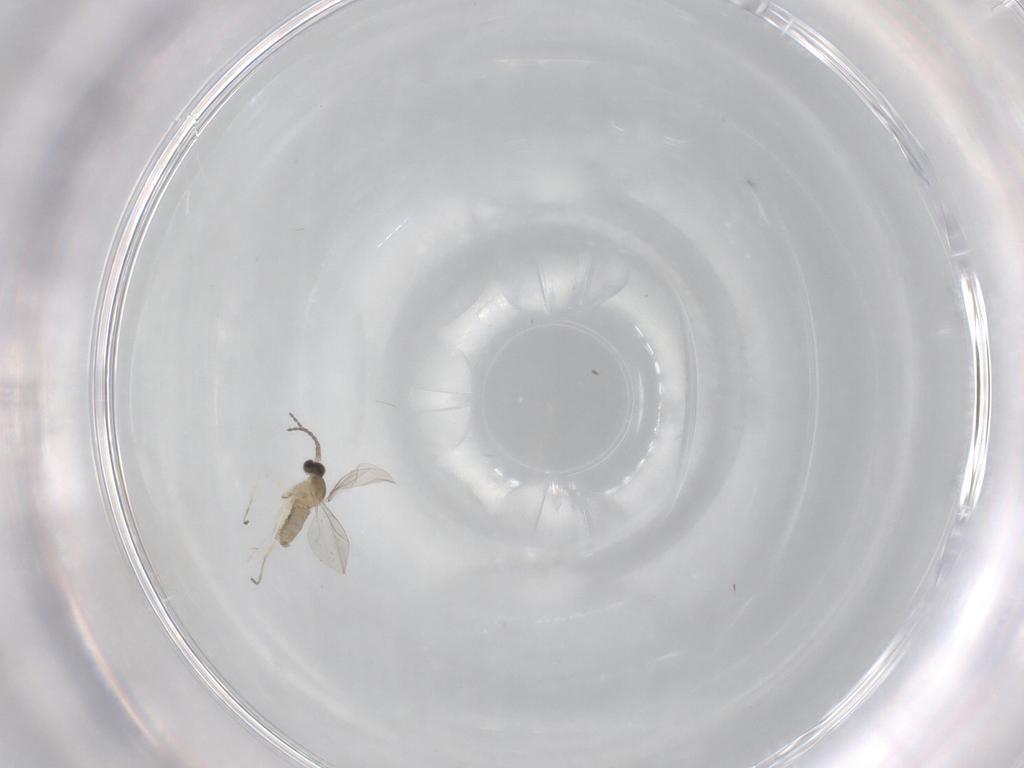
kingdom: Animalia
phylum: Arthropoda
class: Insecta
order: Diptera
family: Cecidomyiidae
